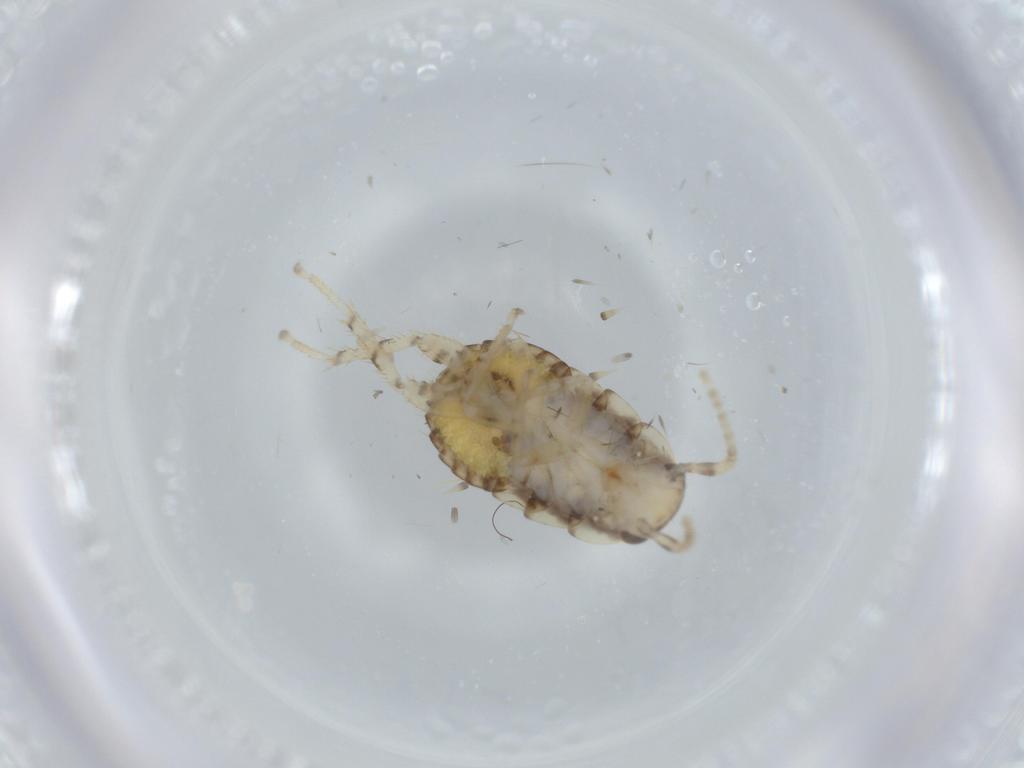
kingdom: Animalia
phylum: Arthropoda
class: Insecta
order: Blattodea
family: Ectobiidae
